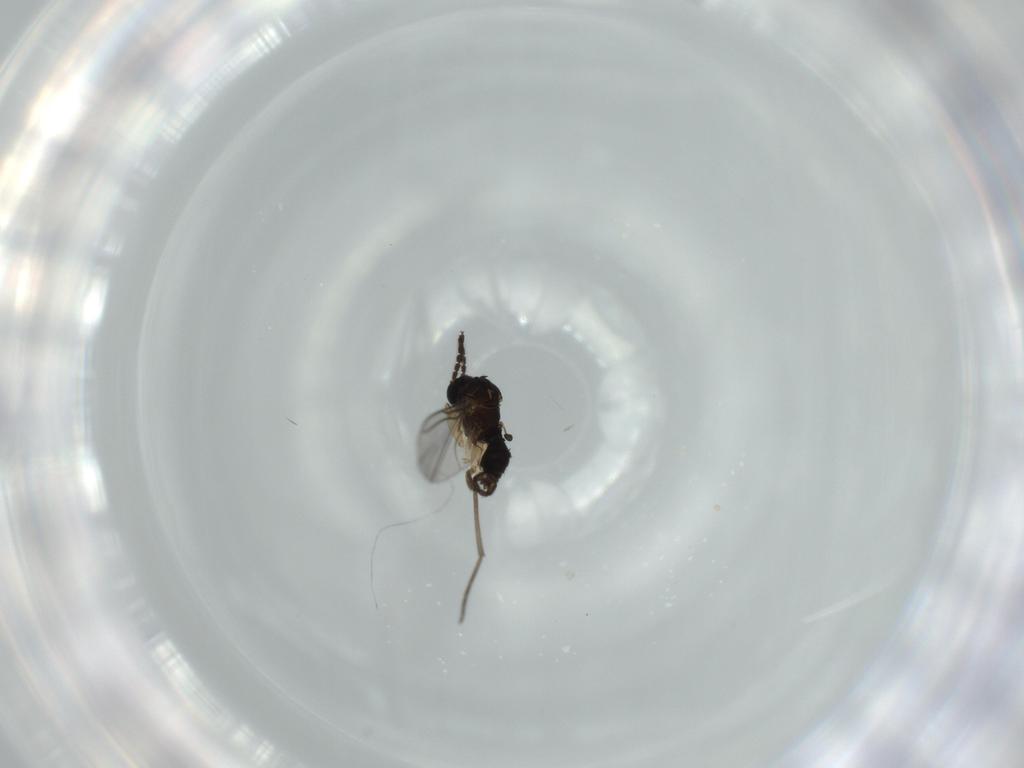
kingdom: Animalia
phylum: Arthropoda
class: Insecta
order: Diptera
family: Sciaridae
